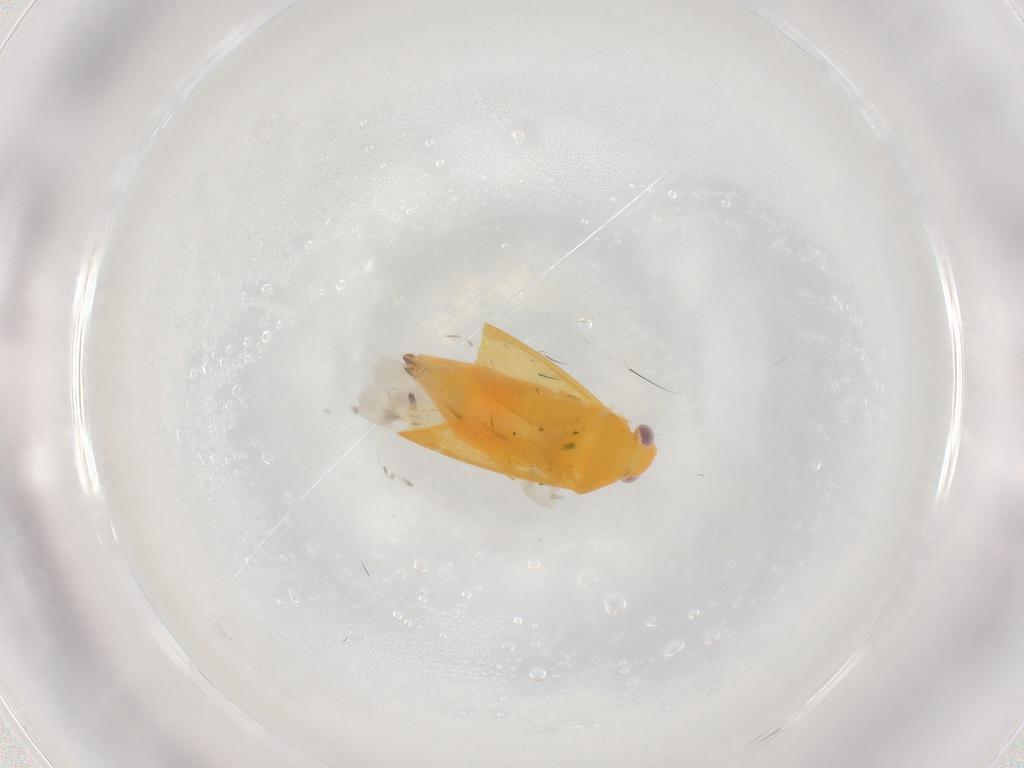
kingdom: Animalia
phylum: Arthropoda
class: Insecta
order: Hemiptera
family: Miridae
